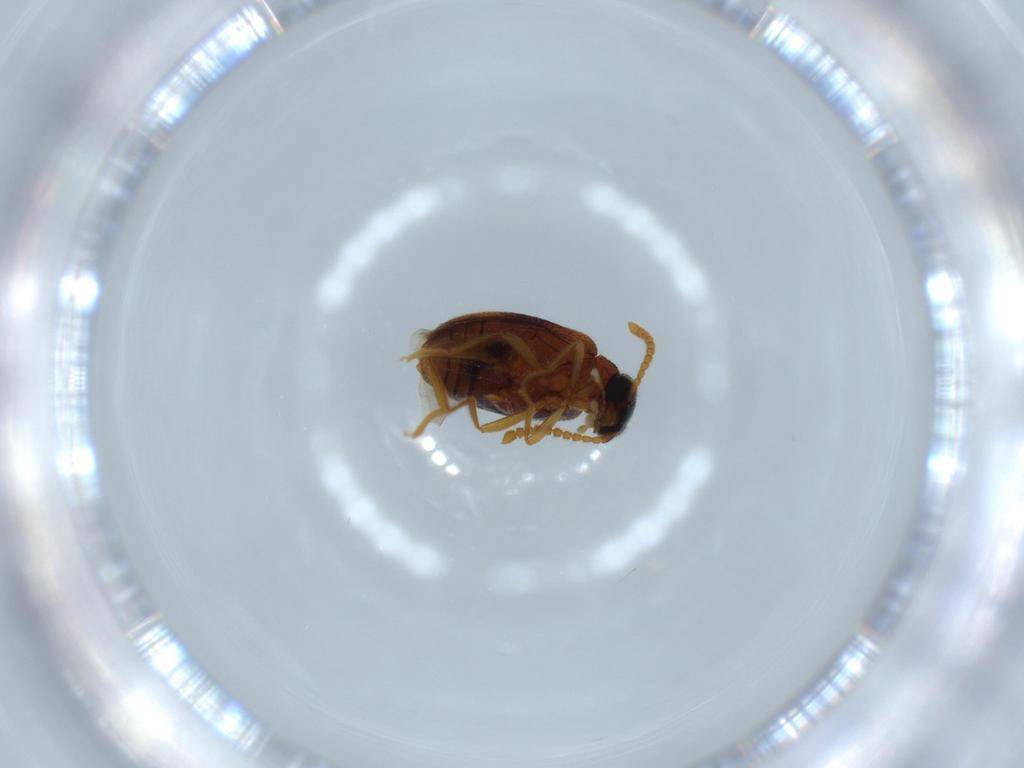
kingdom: Animalia
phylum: Arthropoda
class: Insecta
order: Coleoptera
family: Aderidae
